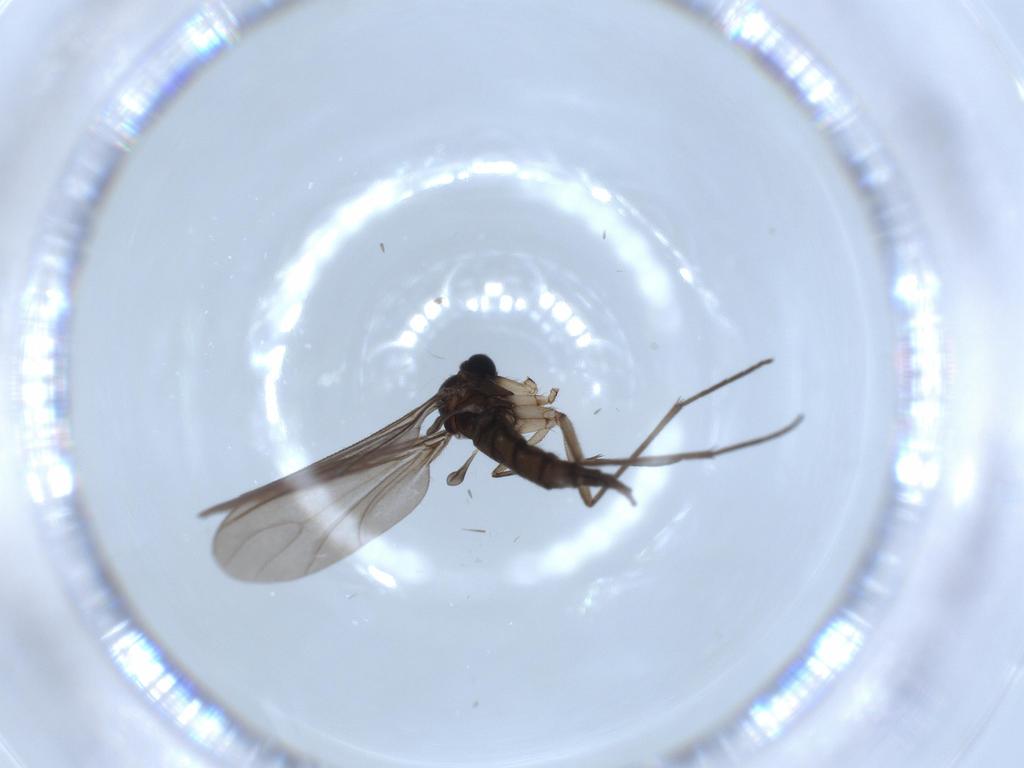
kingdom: Animalia
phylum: Arthropoda
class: Insecta
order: Diptera
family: Sciaridae
